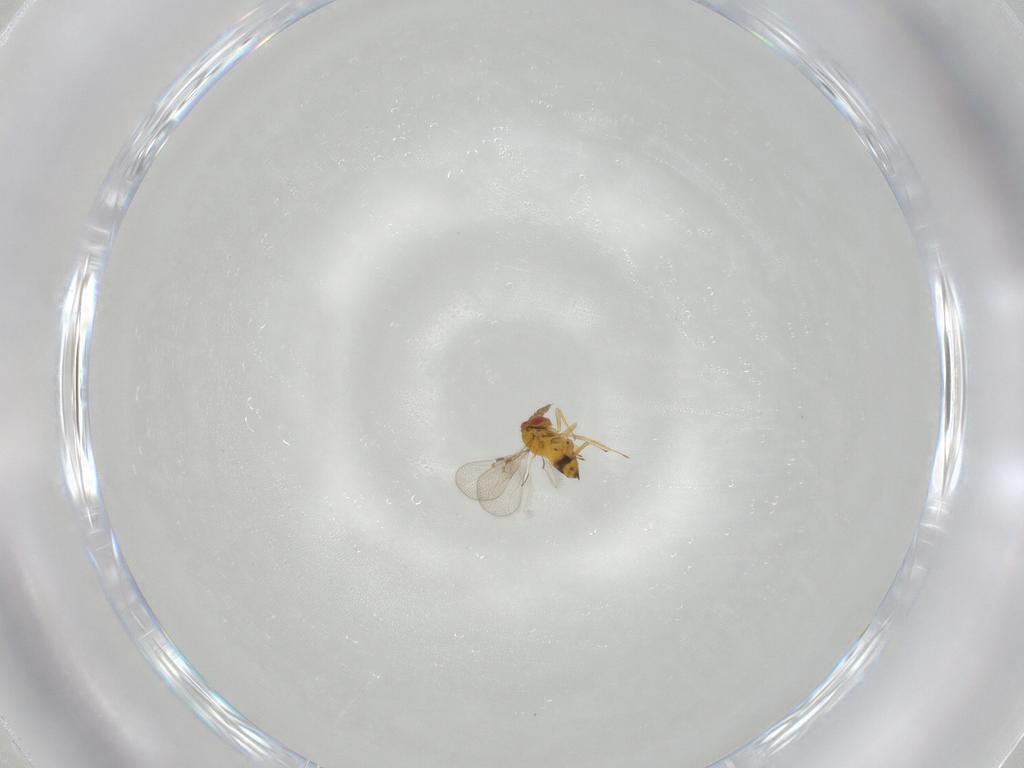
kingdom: Animalia
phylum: Arthropoda
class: Insecta
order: Hymenoptera
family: Trichogrammatidae
